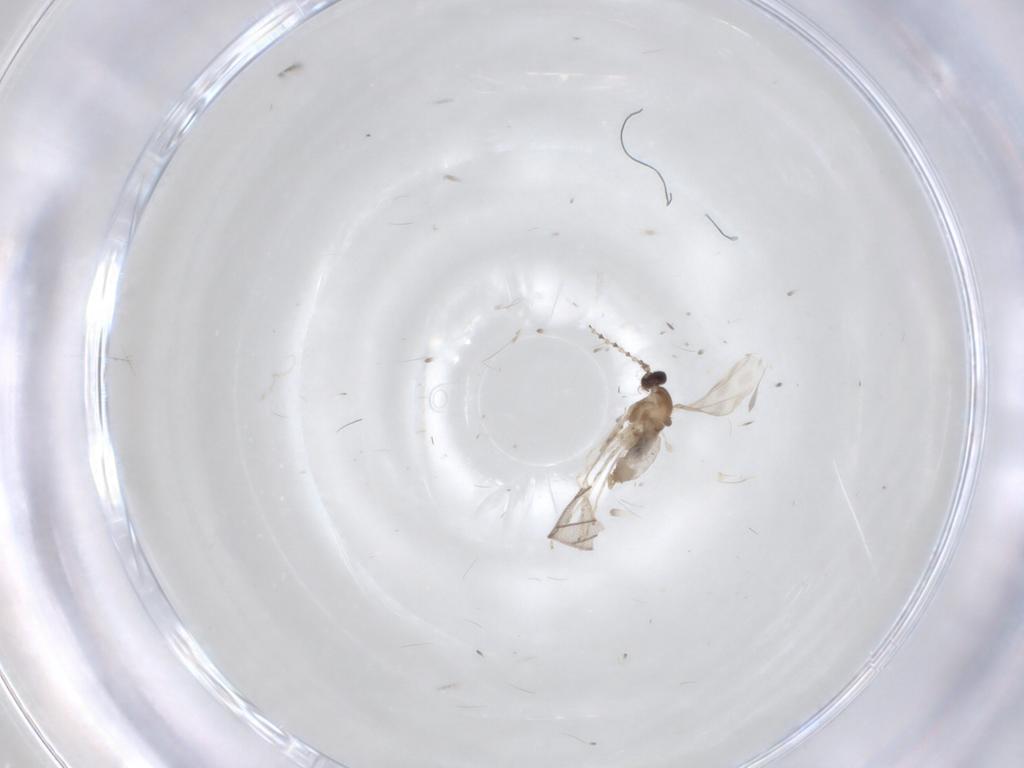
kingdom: Animalia
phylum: Arthropoda
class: Insecta
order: Diptera
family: Cecidomyiidae
